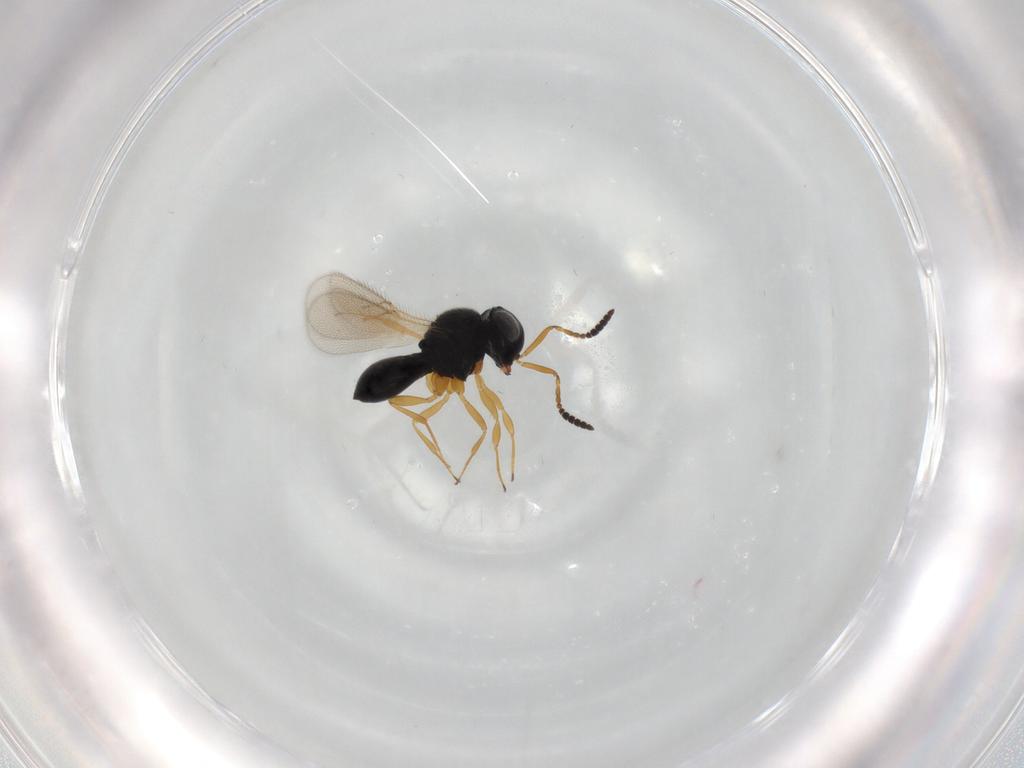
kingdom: Animalia
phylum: Arthropoda
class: Insecta
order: Hymenoptera
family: Scelionidae
